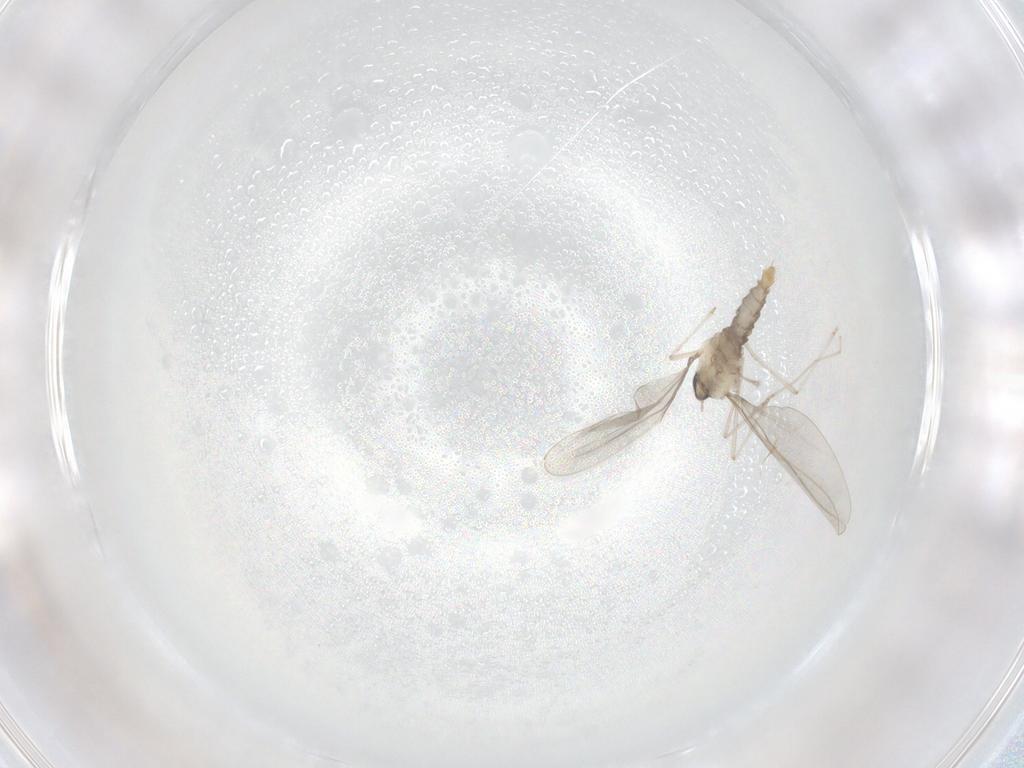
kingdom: Animalia
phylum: Arthropoda
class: Insecta
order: Diptera
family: Cecidomyiidae
